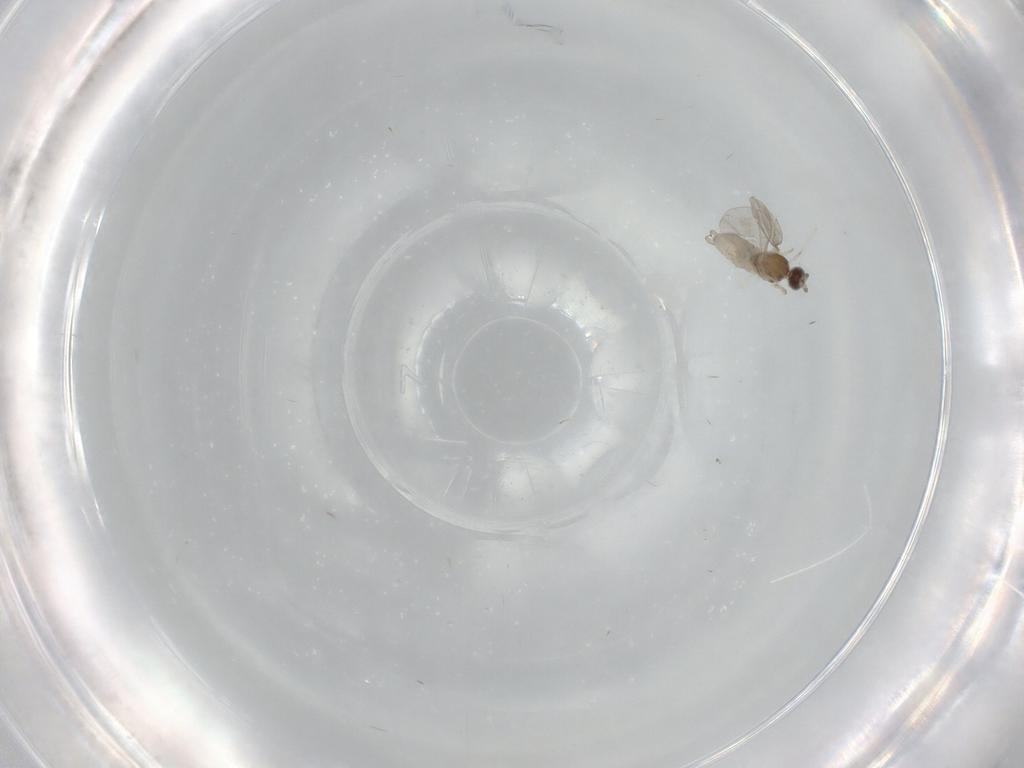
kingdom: Animalia
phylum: Arthropoda
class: Insecta
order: Diptera
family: Cecidomyiidae
